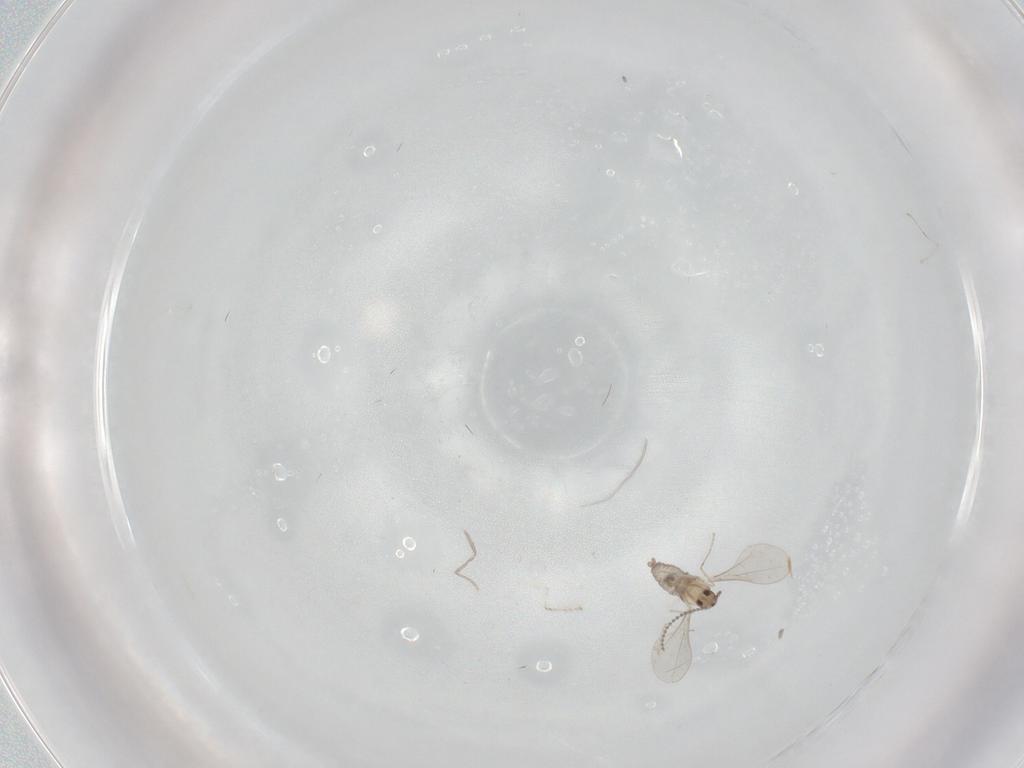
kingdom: Animalia
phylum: Arthropoda
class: Insecta
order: Diptera
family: Cecidomyiidae
